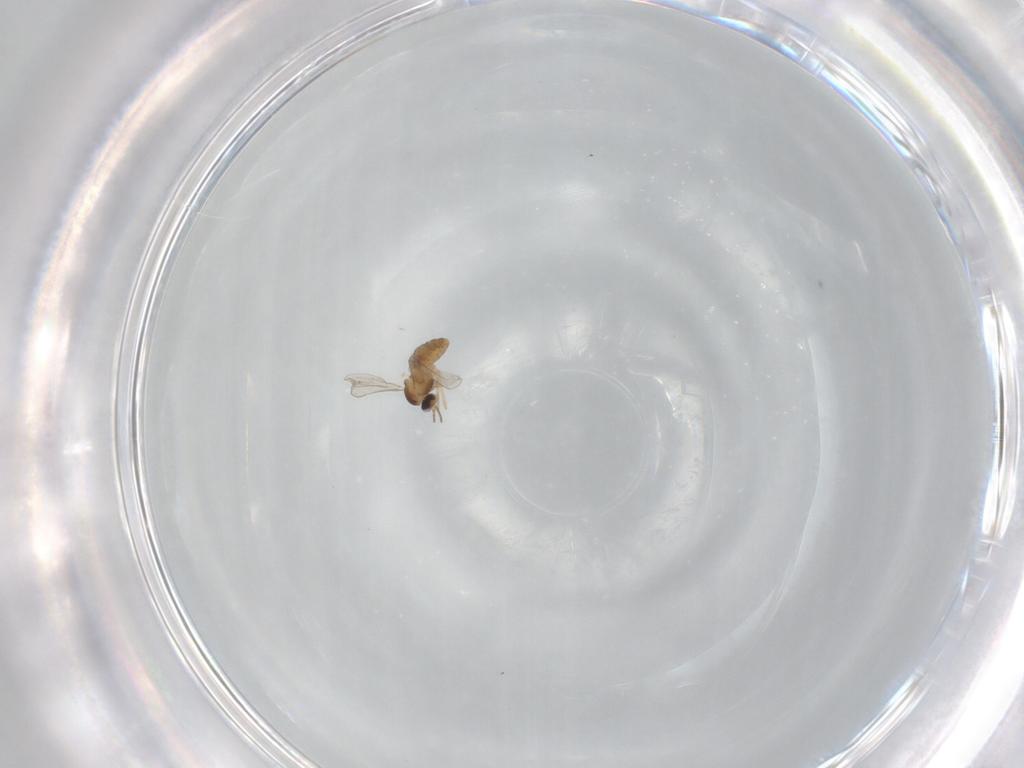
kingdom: Animalia
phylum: Arthropoda
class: Insecta
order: Diptera
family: Cecidomyiidae
